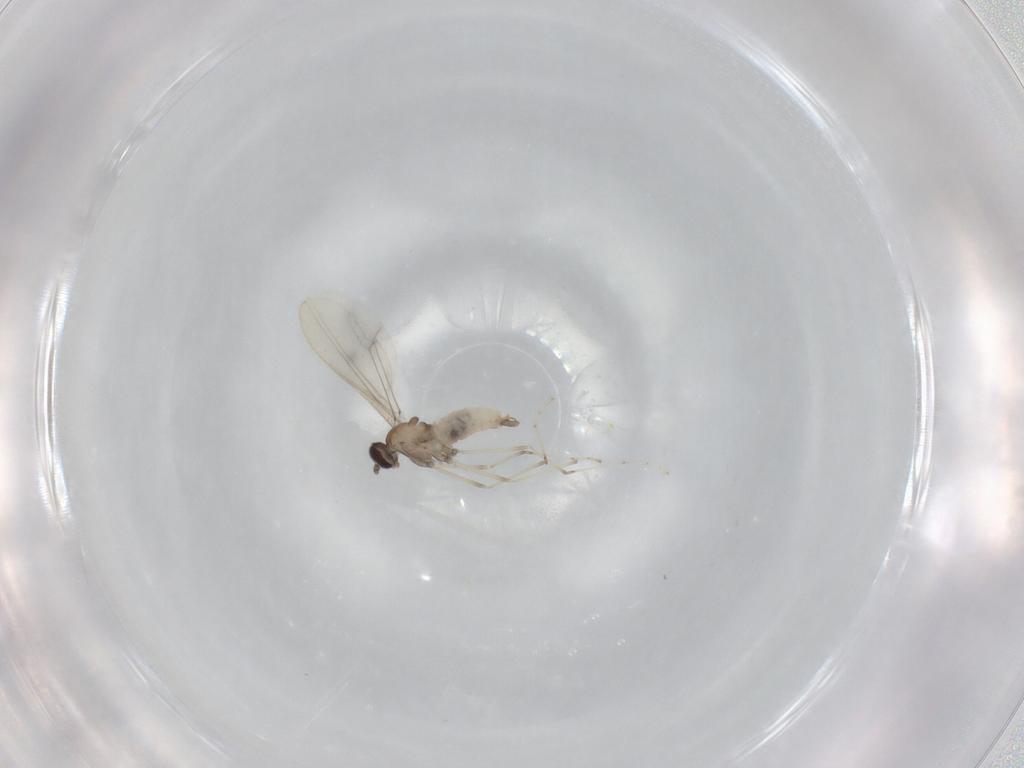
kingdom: Animalia
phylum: Arthropoda
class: Insecta
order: Diptera
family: Cecidomyiidae
